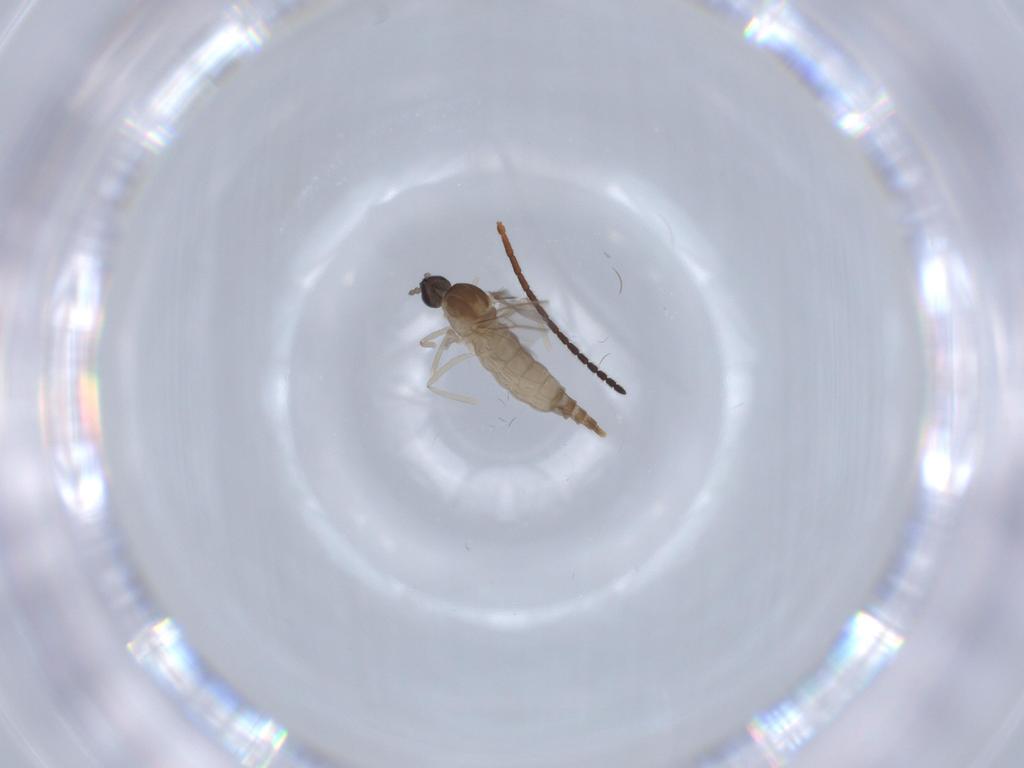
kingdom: Animalia
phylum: Arthropoda
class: Insecta
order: Diptera
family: Cecidomyiidae
